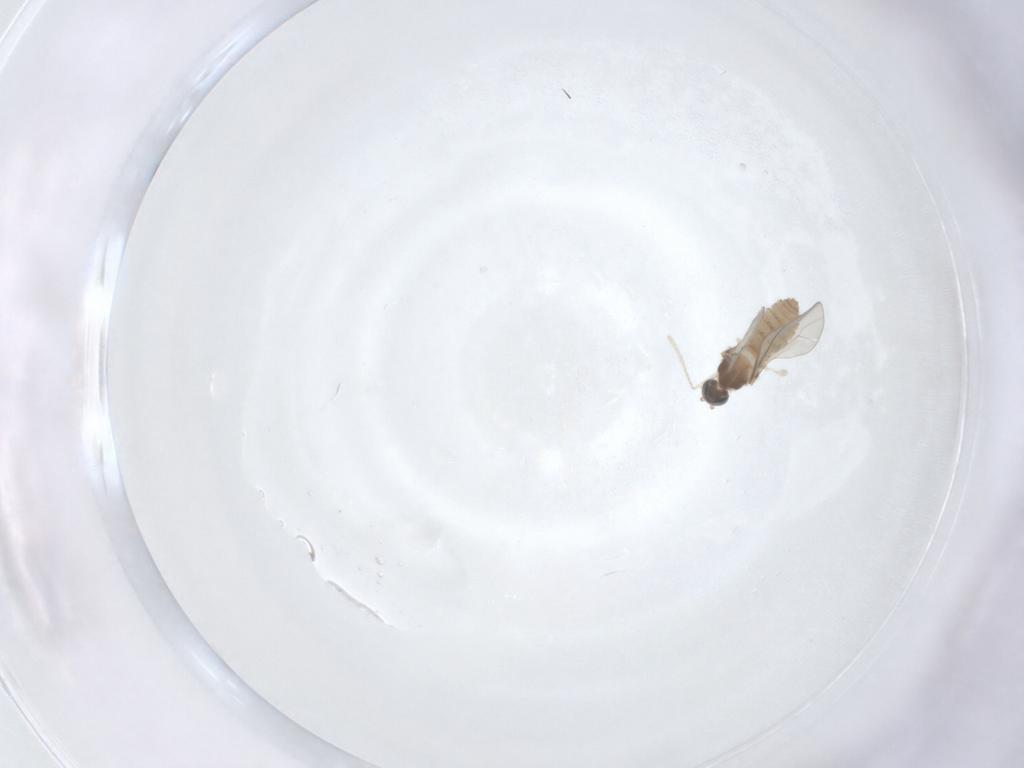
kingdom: Animalia
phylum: Arthropoda
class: Insecta
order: Diptera
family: Cecidomyiidae
